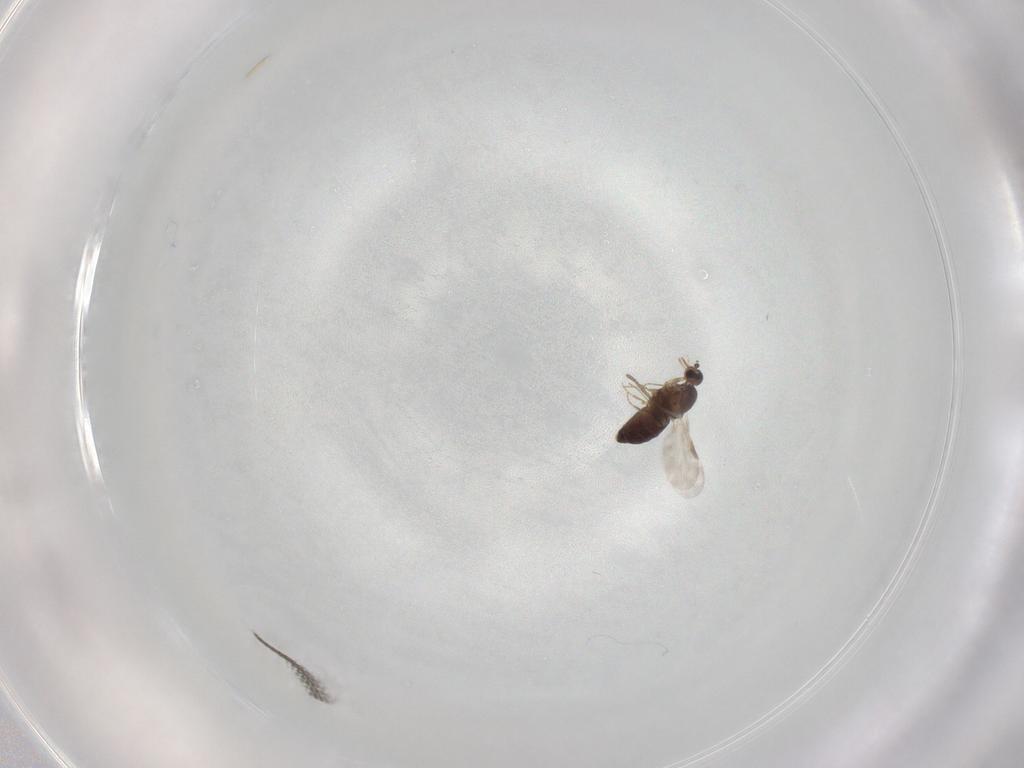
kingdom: Animalia
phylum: Arthropoda
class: Insecta
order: Diptera
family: Ceratopogonidae
